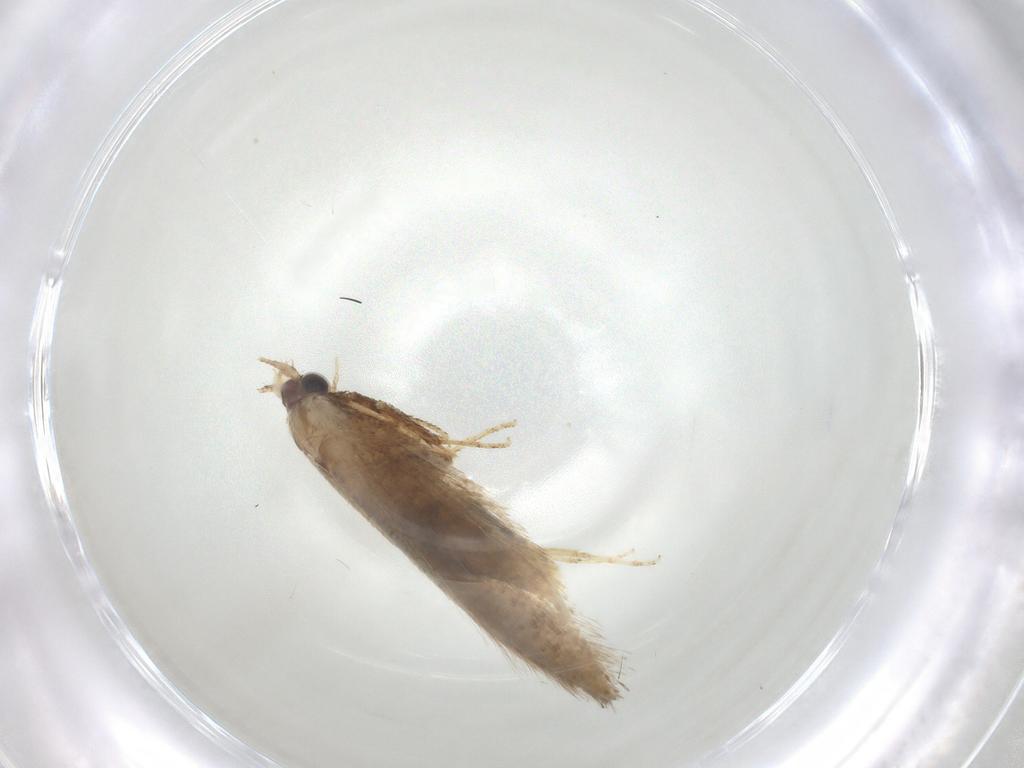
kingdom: Animalia
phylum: Arthropoda
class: Insecta
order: Lepidoptera
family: Nepticulidae
